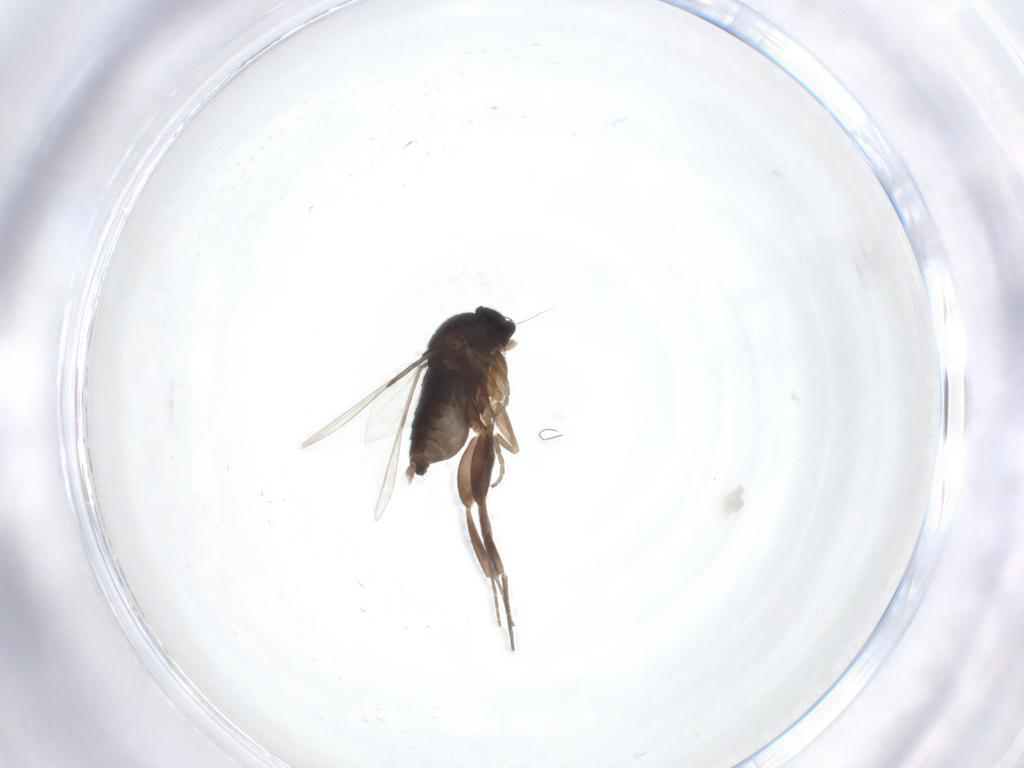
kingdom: Animalia
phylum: Arthropoda
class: Insecta
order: Diptera
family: Phoridae
